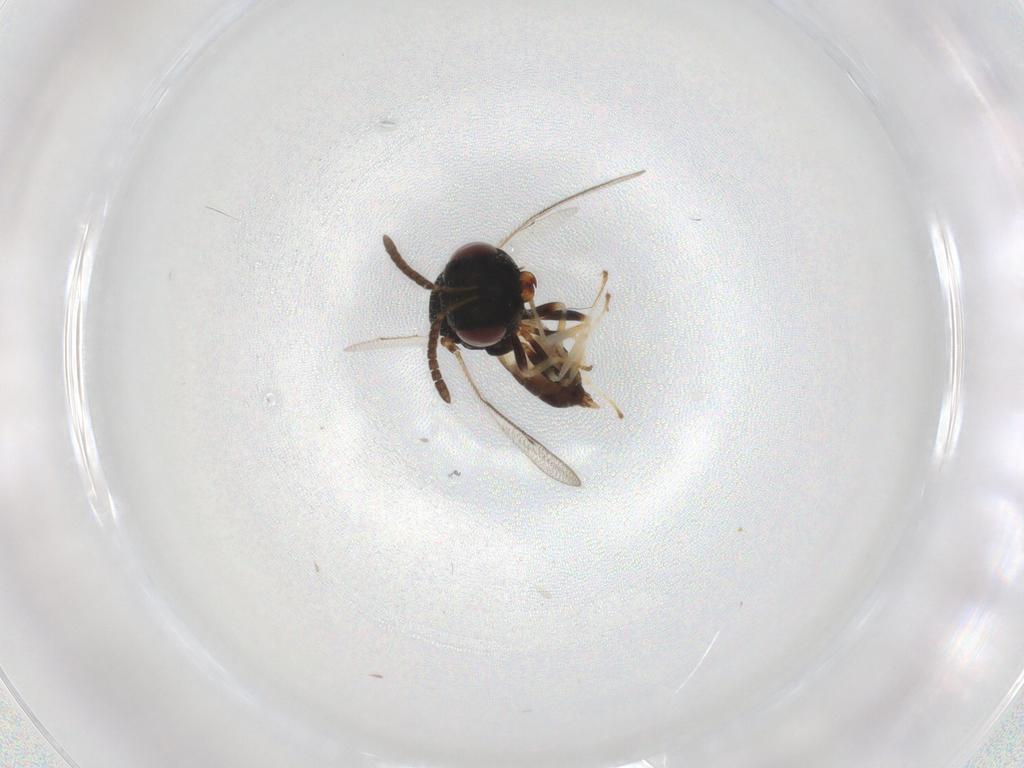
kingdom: Animalia
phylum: Arthropoda
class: Insecta
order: Hymenoptera
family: Pteromalidae
